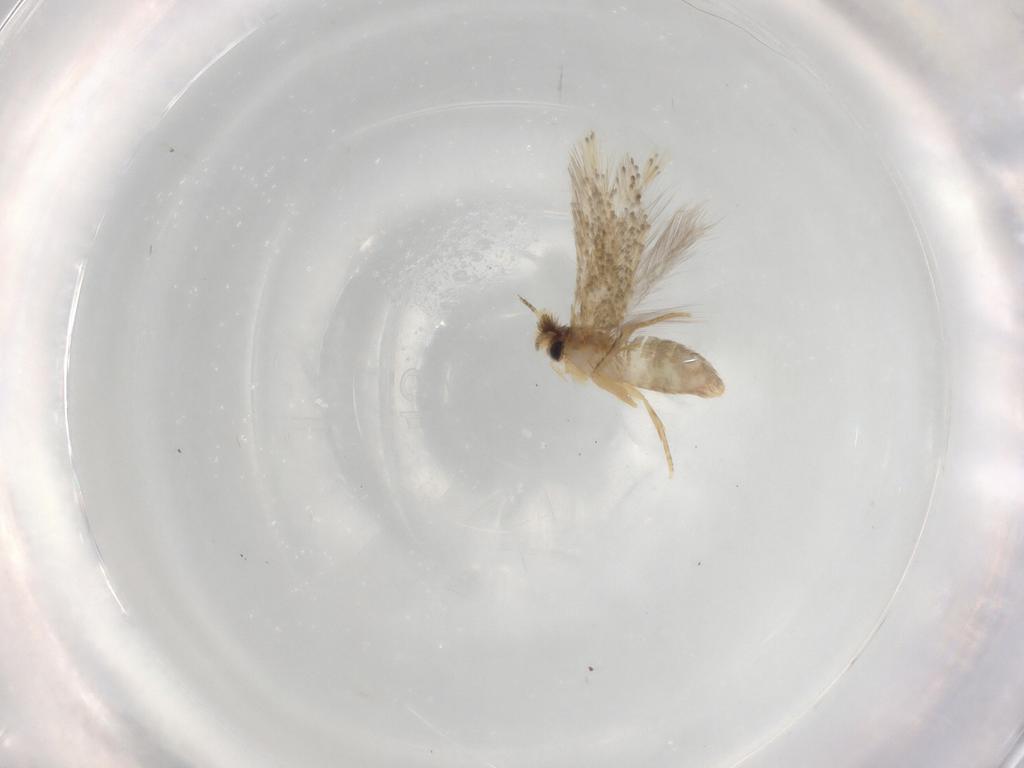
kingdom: Animalia
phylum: Arthropoda
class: Insecta
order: Lepidoptera
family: Nepticulidae
